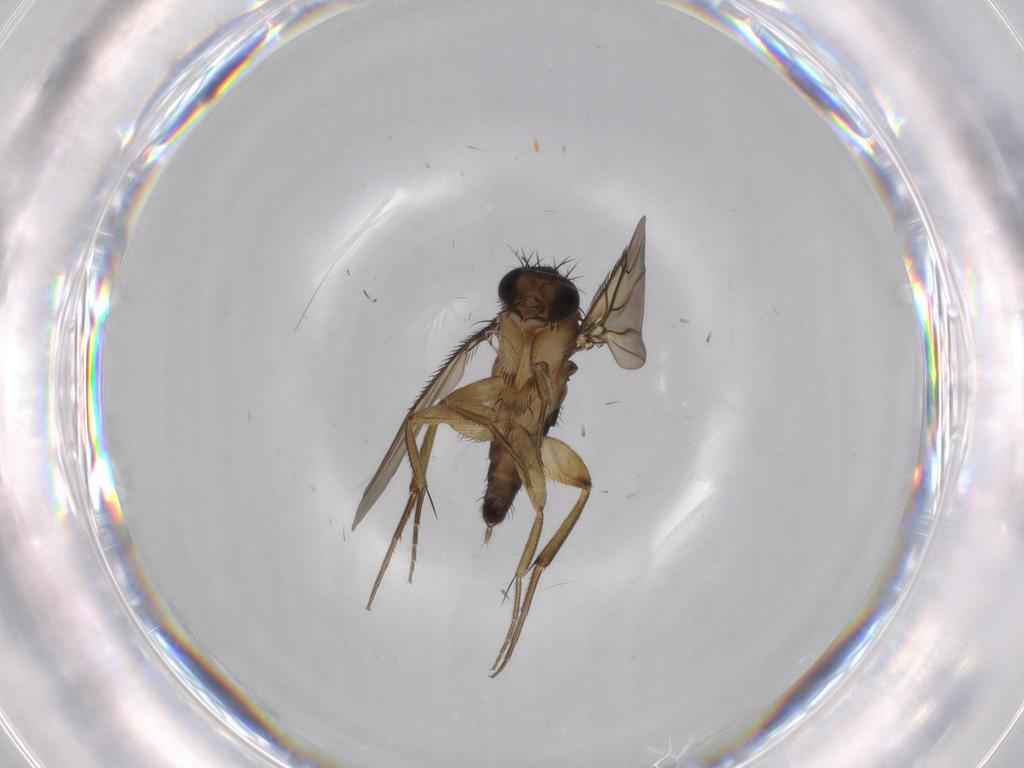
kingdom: Animalia
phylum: Arthropoda
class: Insecta
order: Diptera
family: Phoridae
